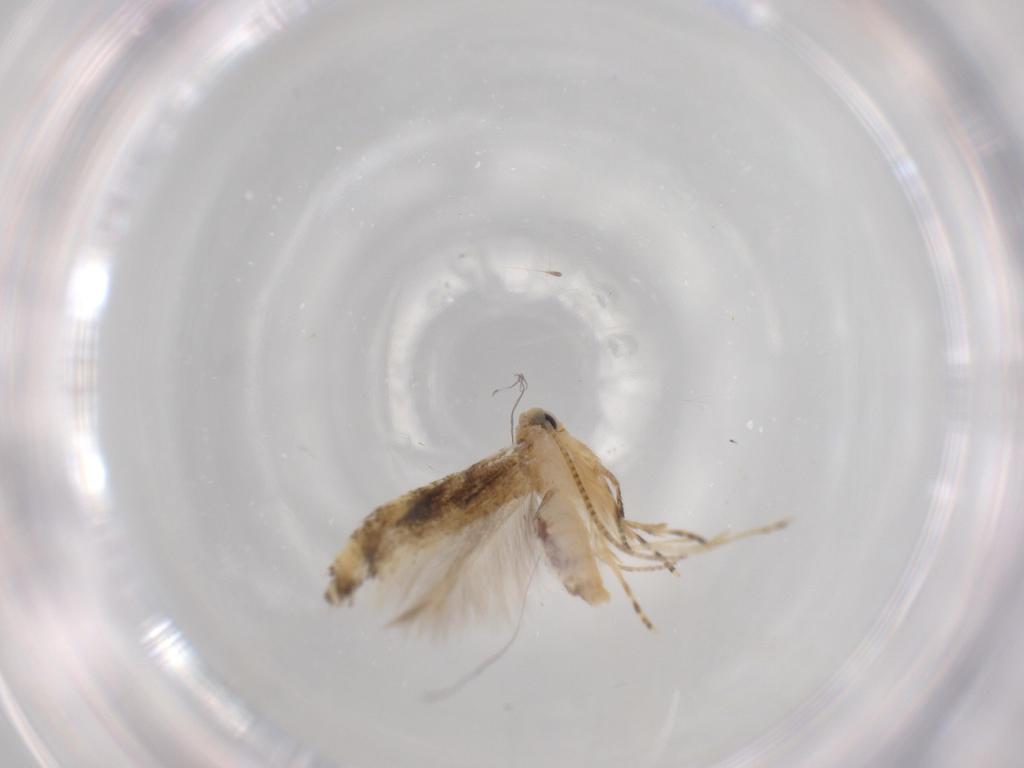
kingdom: Animalia
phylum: Arthropoda
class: Insecta
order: Lepidoptera
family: Bucculatricidae
